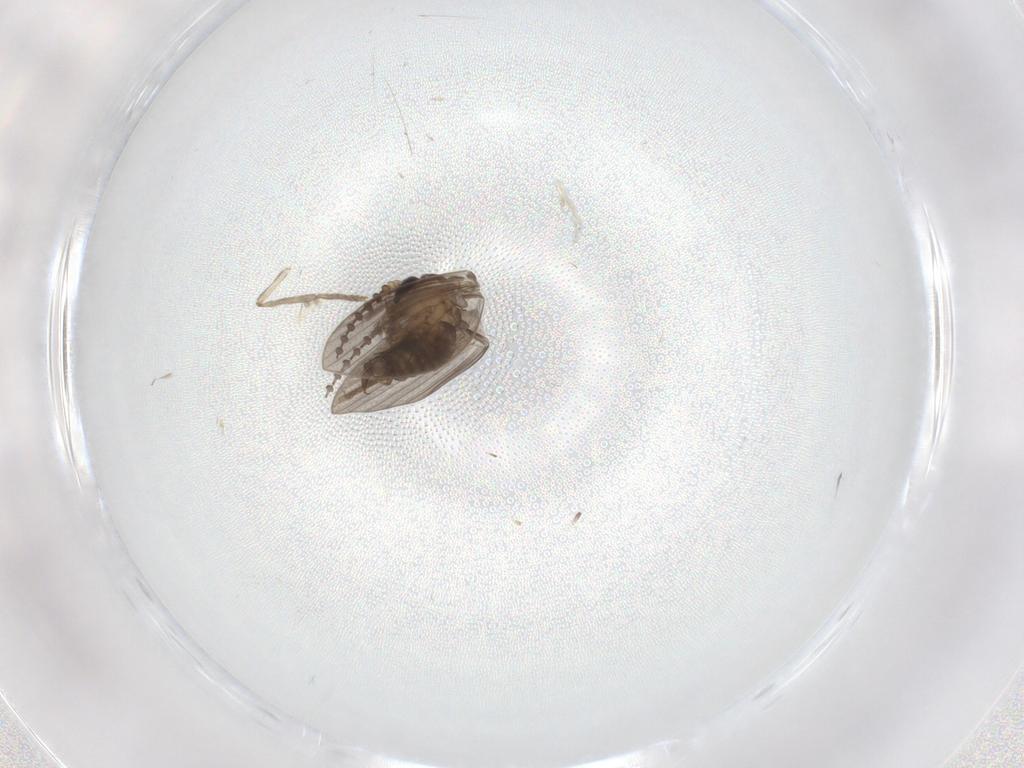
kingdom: Animalia
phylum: Arthropoda
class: Insecta
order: Diptera
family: Psychodidae
